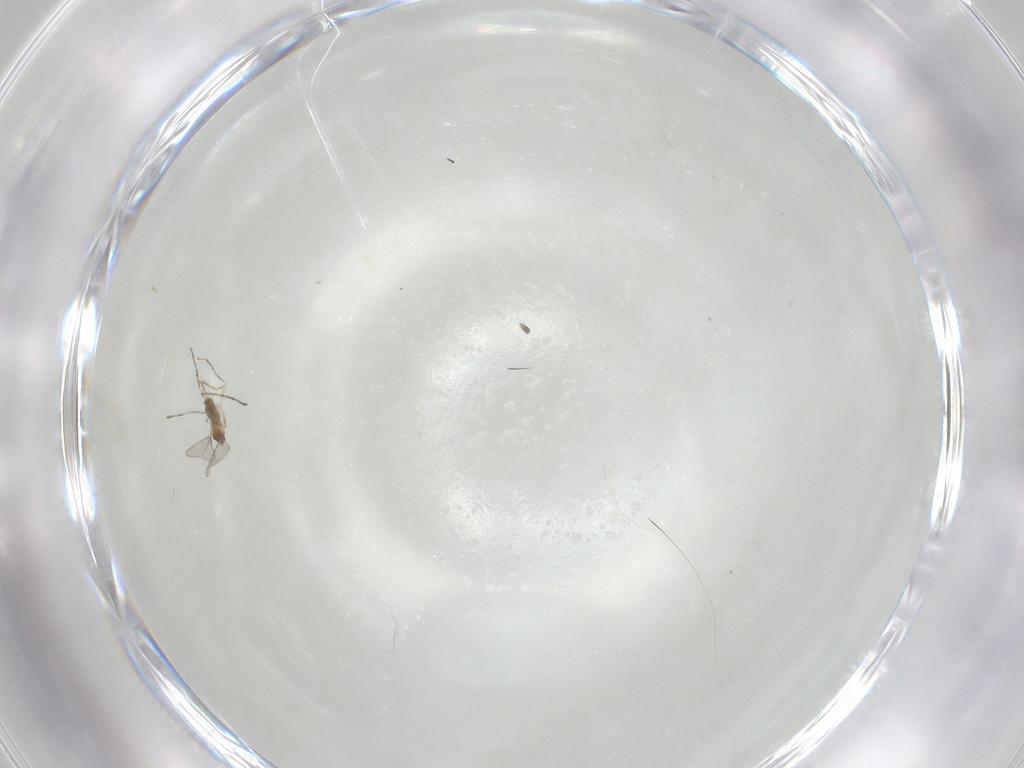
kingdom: Animalia
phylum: Arthropoda
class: Insecta
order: Diptera
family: Cecidomyiidae
